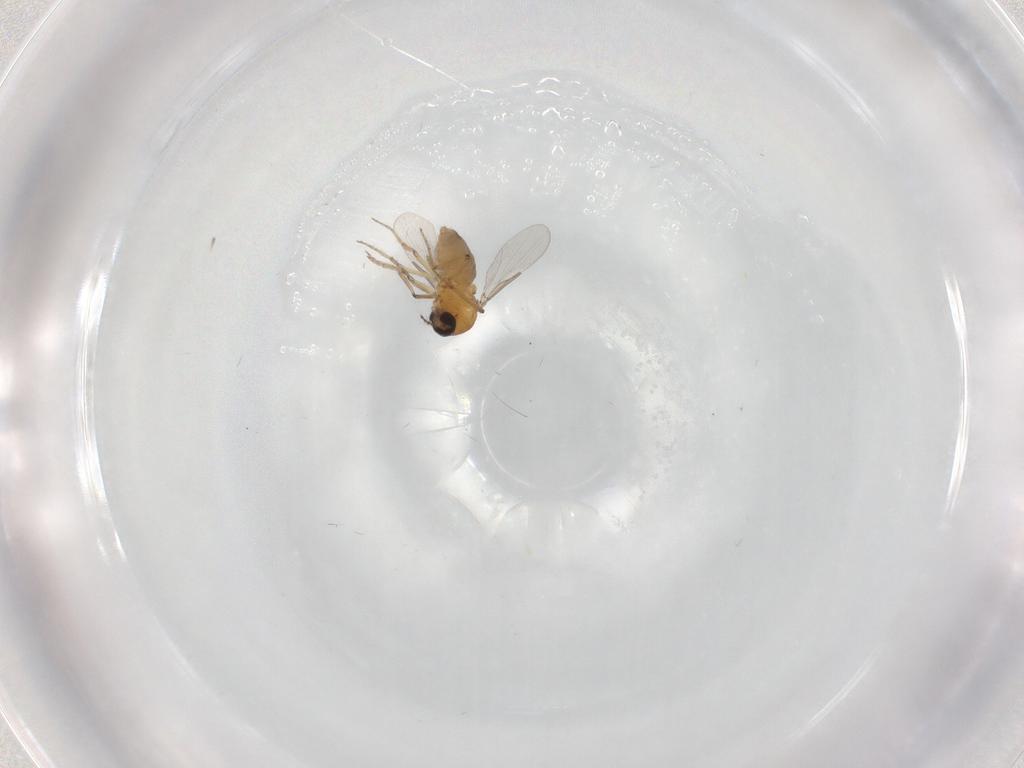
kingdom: Animalia
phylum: Arthropoda
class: Insecta
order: Diptera
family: Ceratopogonidae
